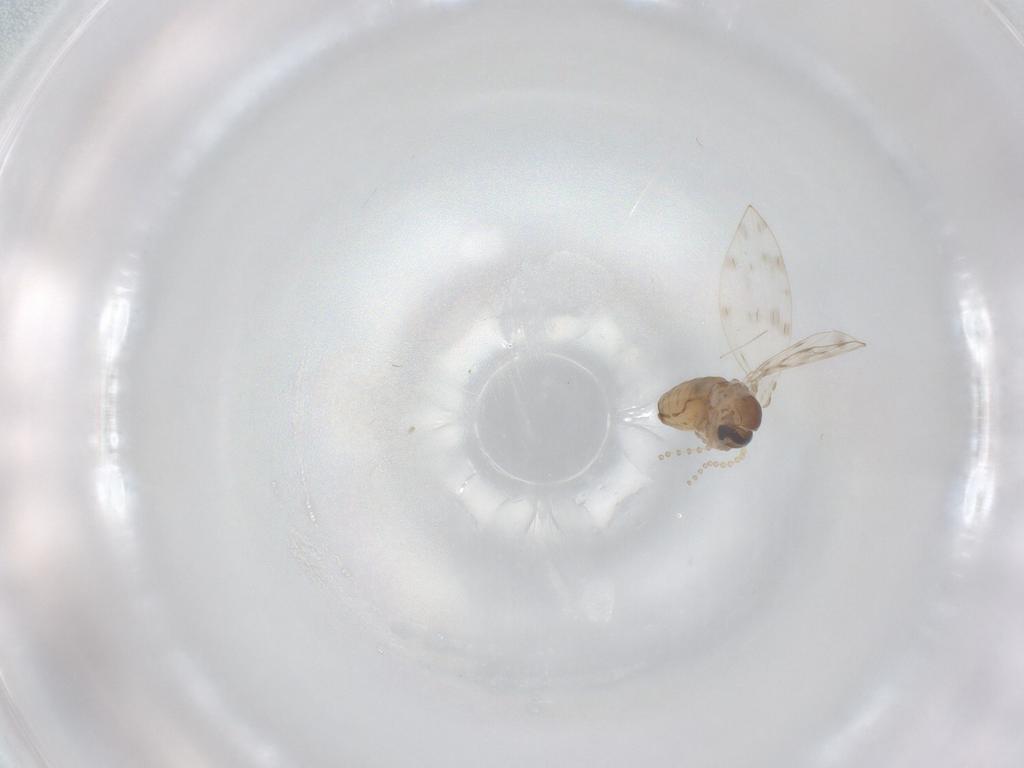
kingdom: Animalia
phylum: Arthropoda
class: Insecta
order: Diptera
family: Psychodidae
